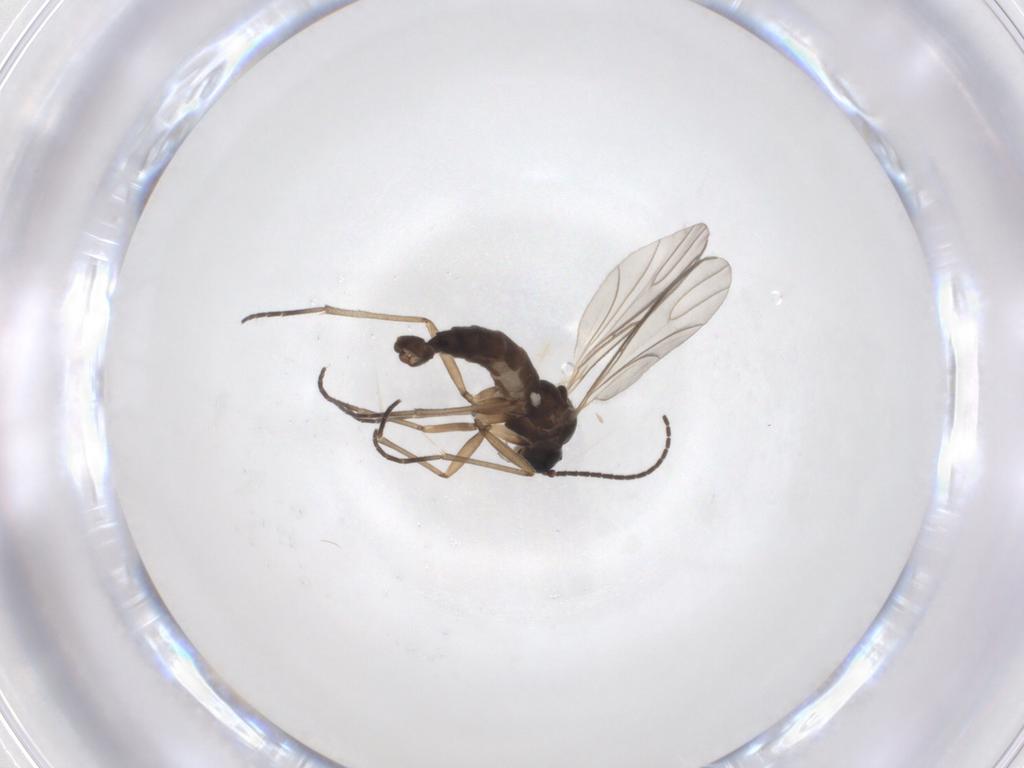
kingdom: Animalia
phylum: Arthropoda
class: Insecta
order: Diptera
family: Sciaridae
